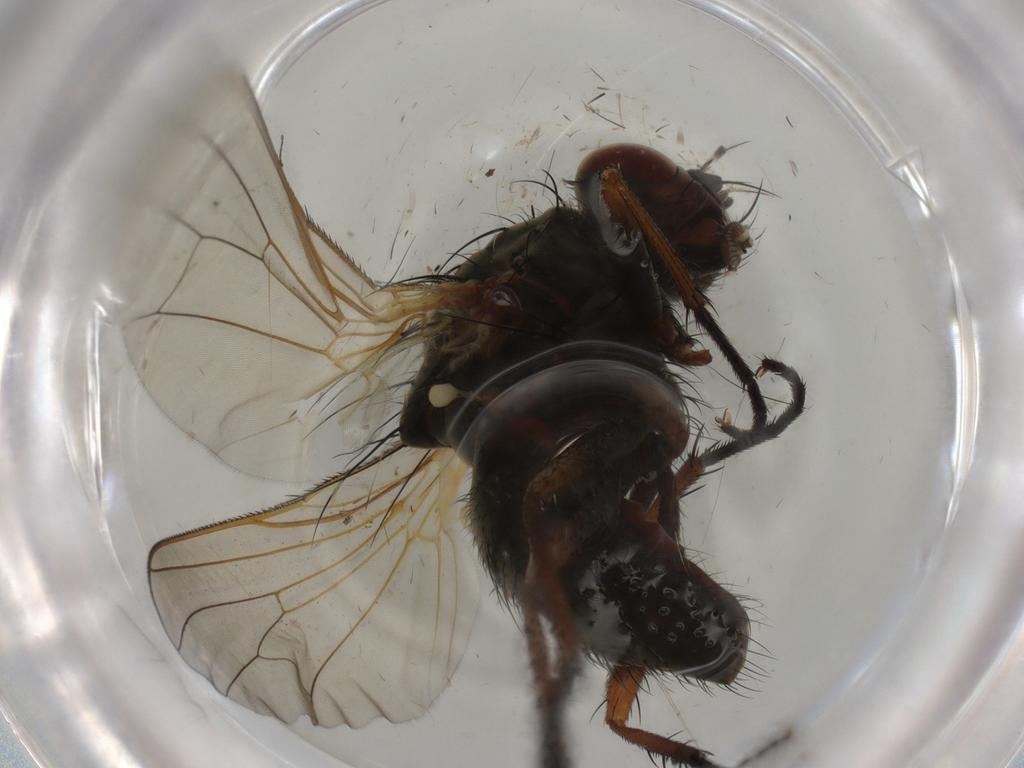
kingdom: Animalia
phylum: Arthropoda
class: Insecta
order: Diptera
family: Anthomyiidae
